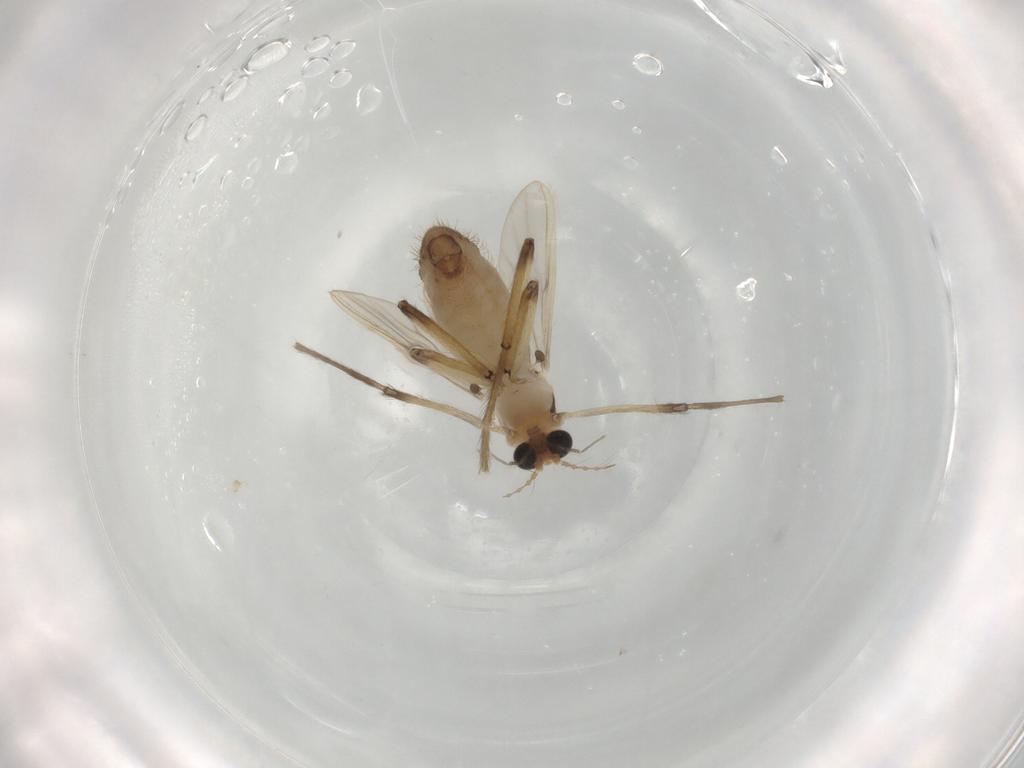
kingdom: Animalia
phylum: Arthropoda
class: Insecta
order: Diptera
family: Chironomidae
